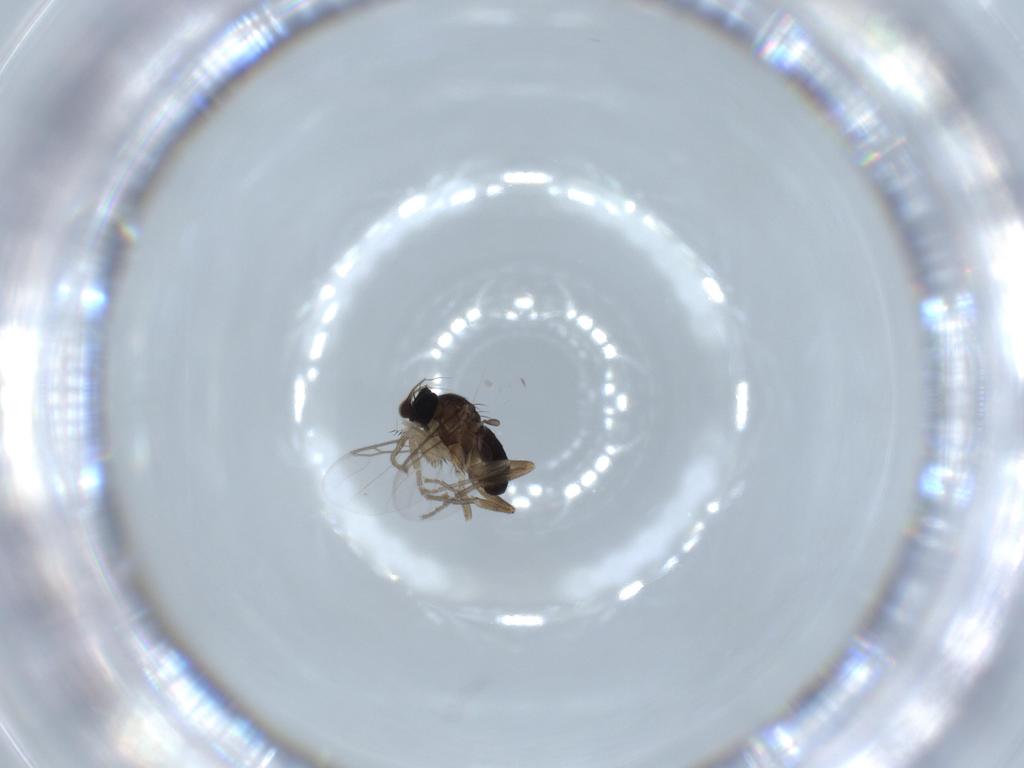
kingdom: Animalia
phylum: Arthropoda
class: Insecta
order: Diptera
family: Phoridae
